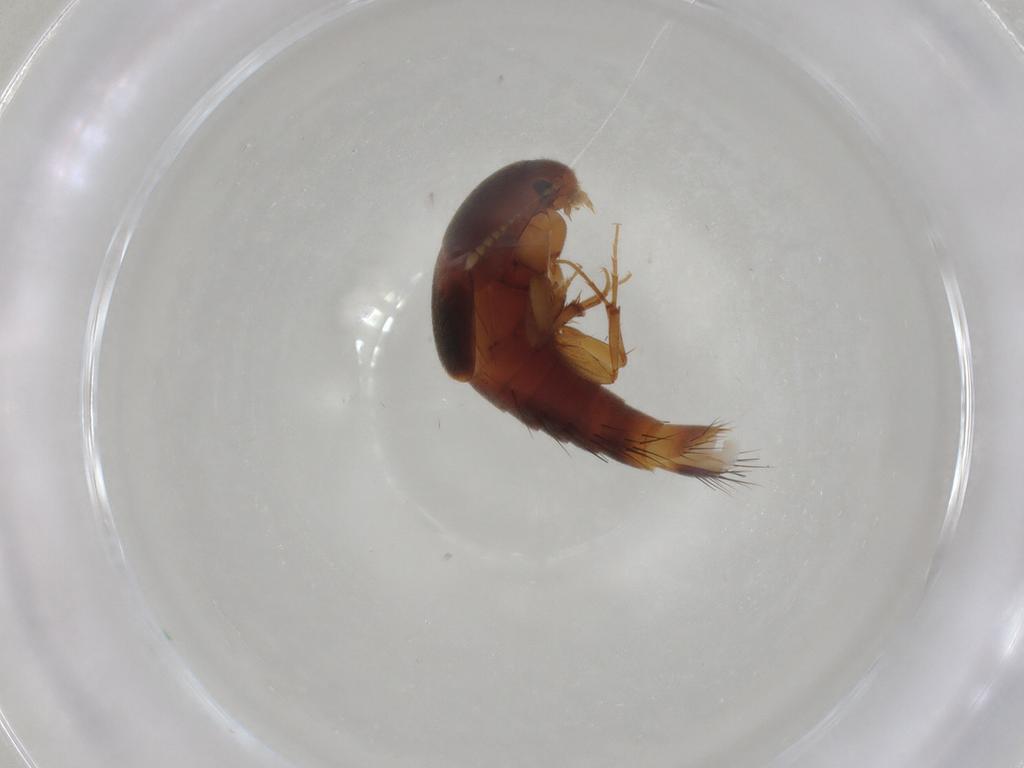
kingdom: Animalia
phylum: Arthropoda
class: Insecta
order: Coleoptera
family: Staphylinidae
